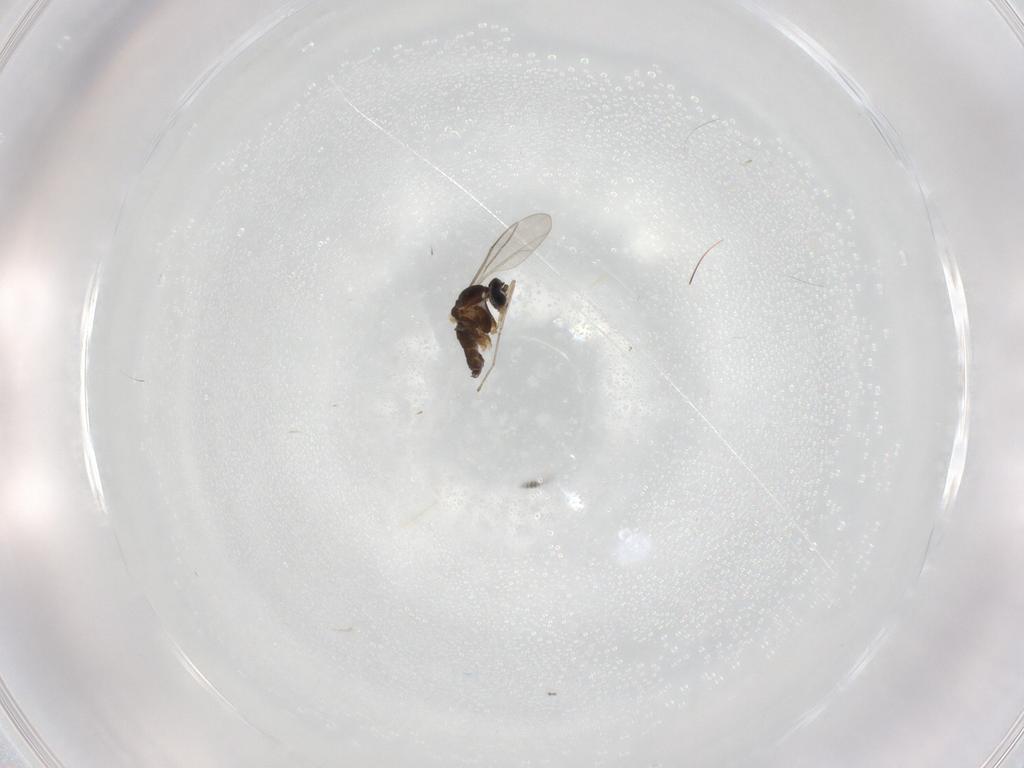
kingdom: Animalia
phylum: Arthropoda
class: Insecta
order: Diptera
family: Cecidomyiidae
